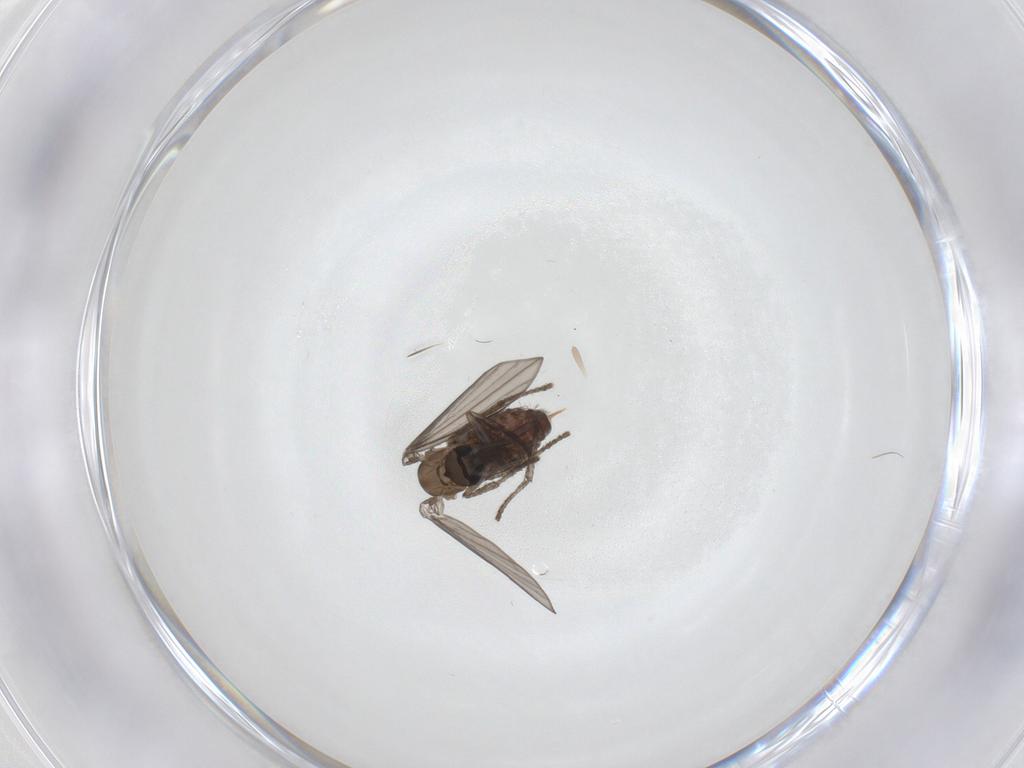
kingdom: Animalia
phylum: Arthropoda
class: Insecta
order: Diptera
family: Psychodidae
